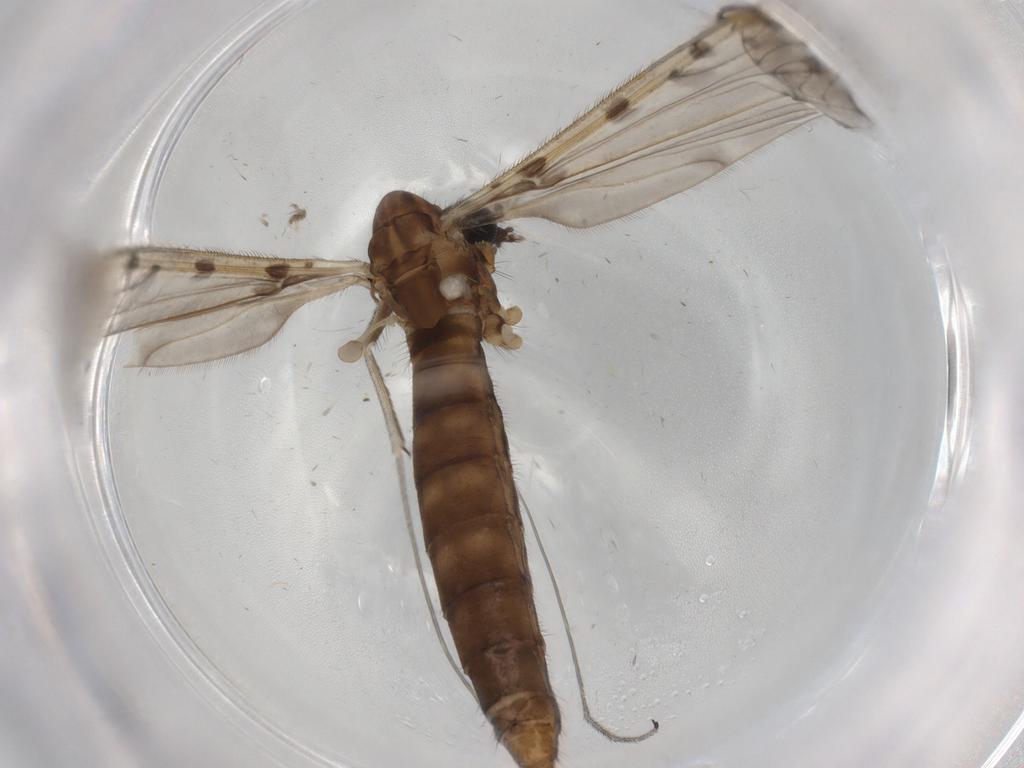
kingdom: Animalia
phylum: Arthropoda
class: Insecta
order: Diptera
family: Limoniidae
